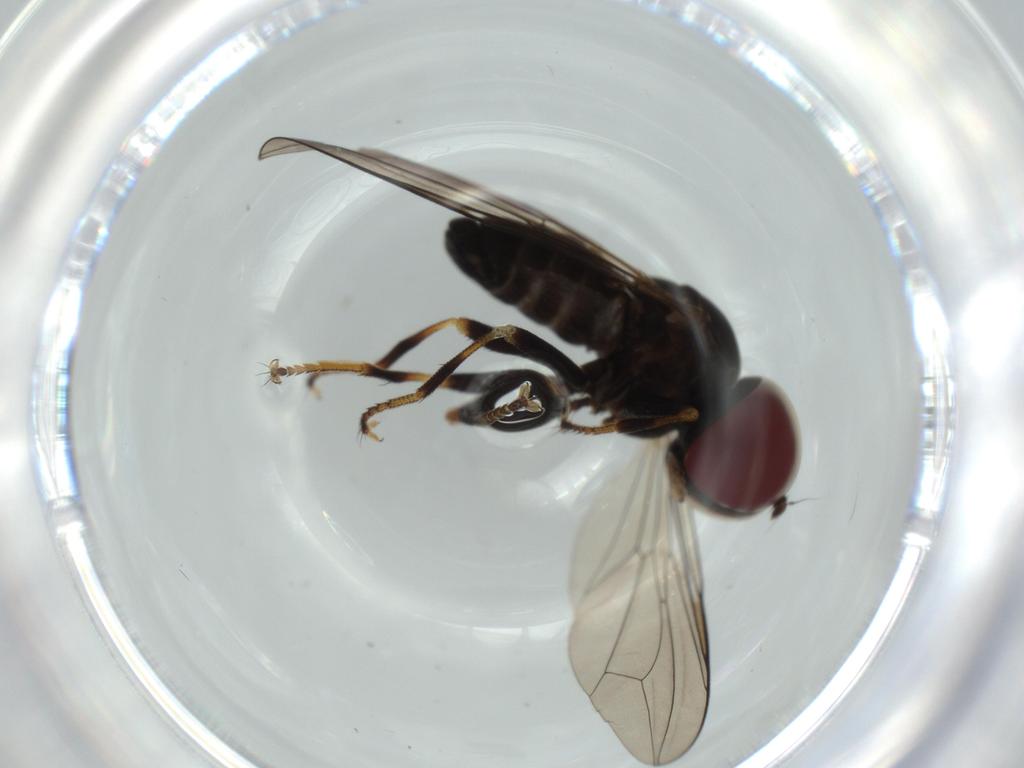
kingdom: Animalia
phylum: Arthropoda
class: Insecta
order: Diptera
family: Pipunculidae
